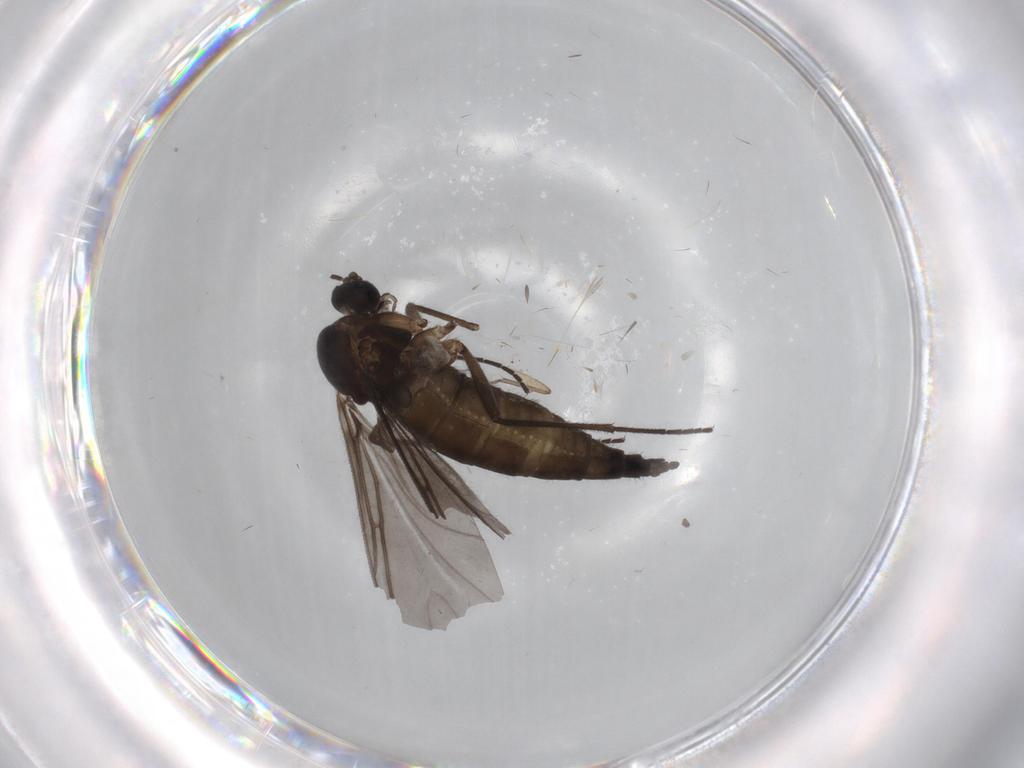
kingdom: Animalia
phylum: Arthropoda
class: Insecta
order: Diptera
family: Sciaridae
